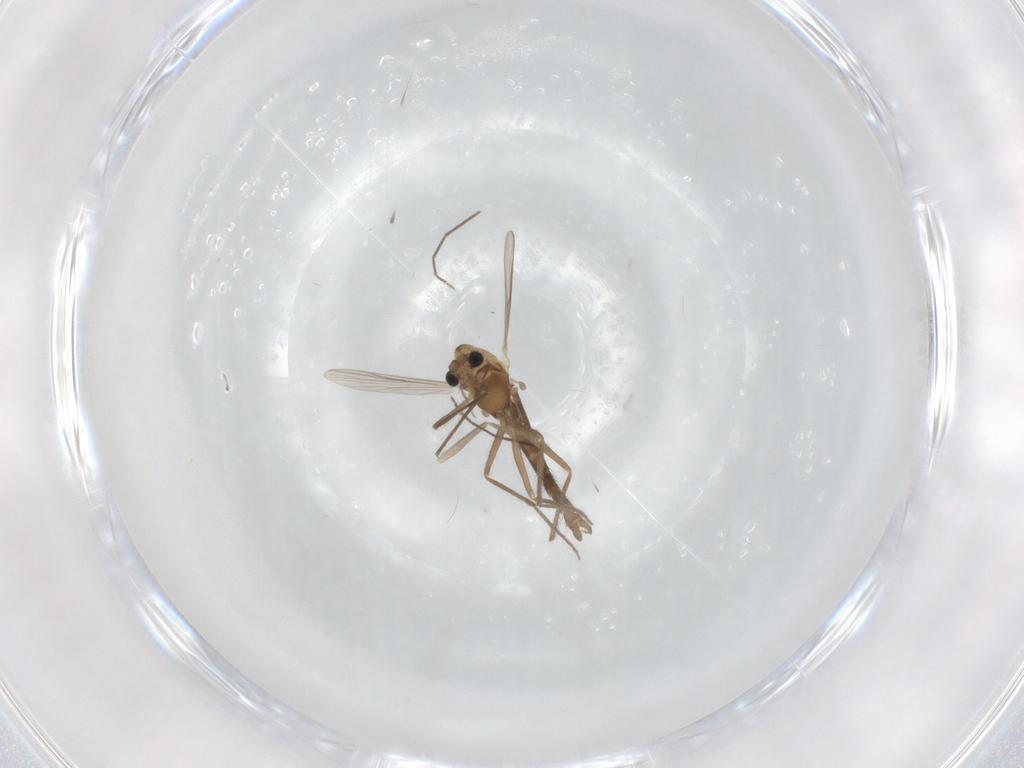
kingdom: Animalia
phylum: Arthropoda
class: Insecta
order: Diptera
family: Chironomidae
